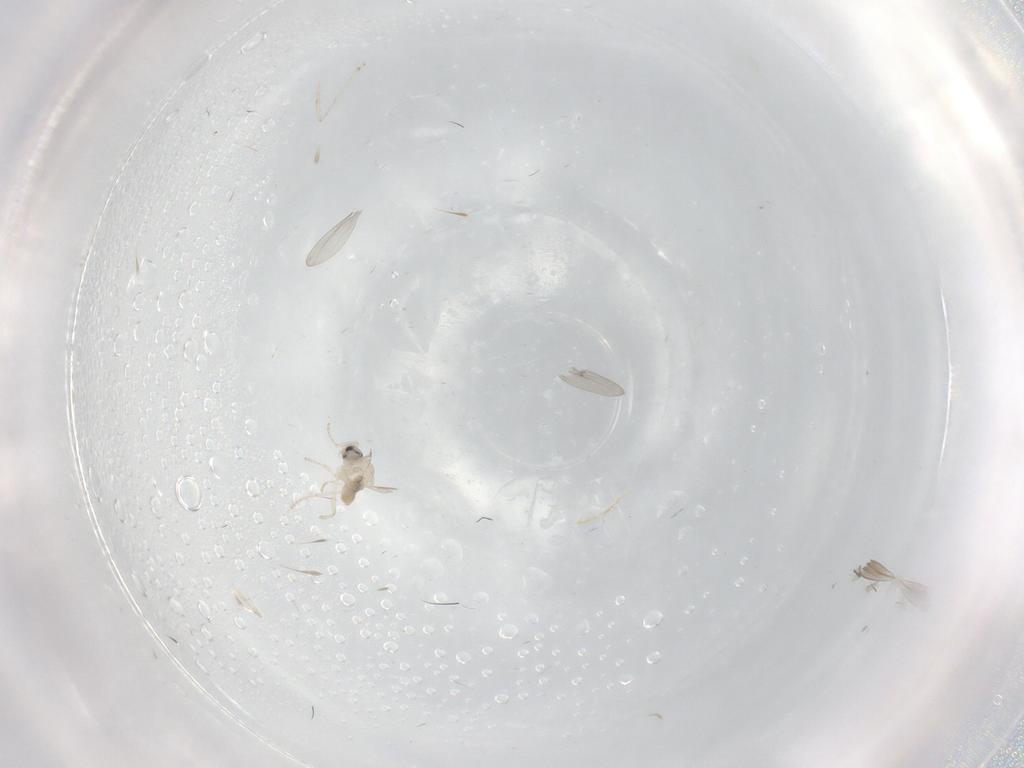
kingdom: Animalia
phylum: Arthropoda
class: Insecta
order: Diptera
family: Cecidomyiidae
